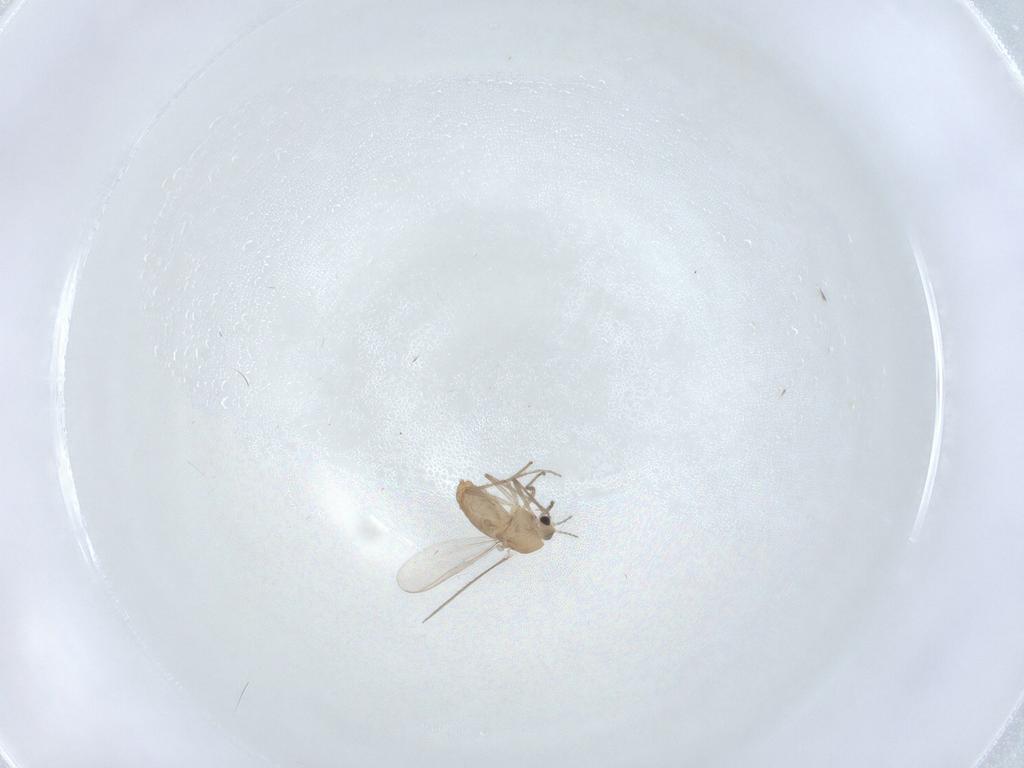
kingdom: Animalia
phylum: Arthropoda
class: Insecta
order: Diptera
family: Chironomidae
